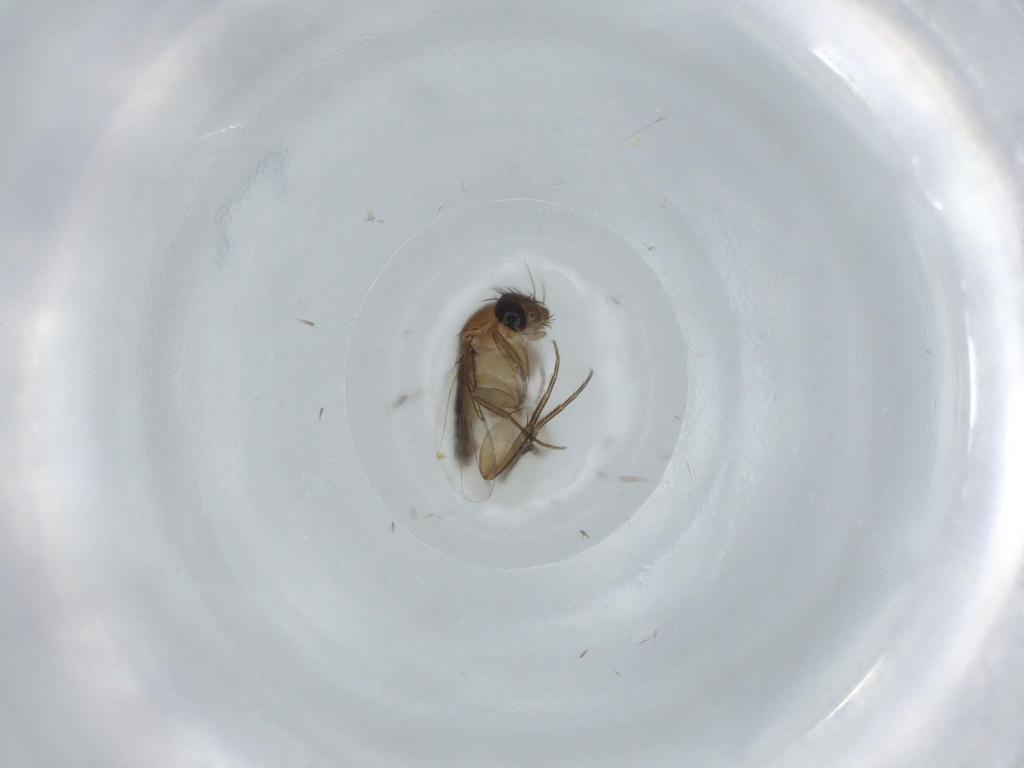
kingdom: Animalia
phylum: Arthropoda
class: Insecta
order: Diptera
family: Phoridae
